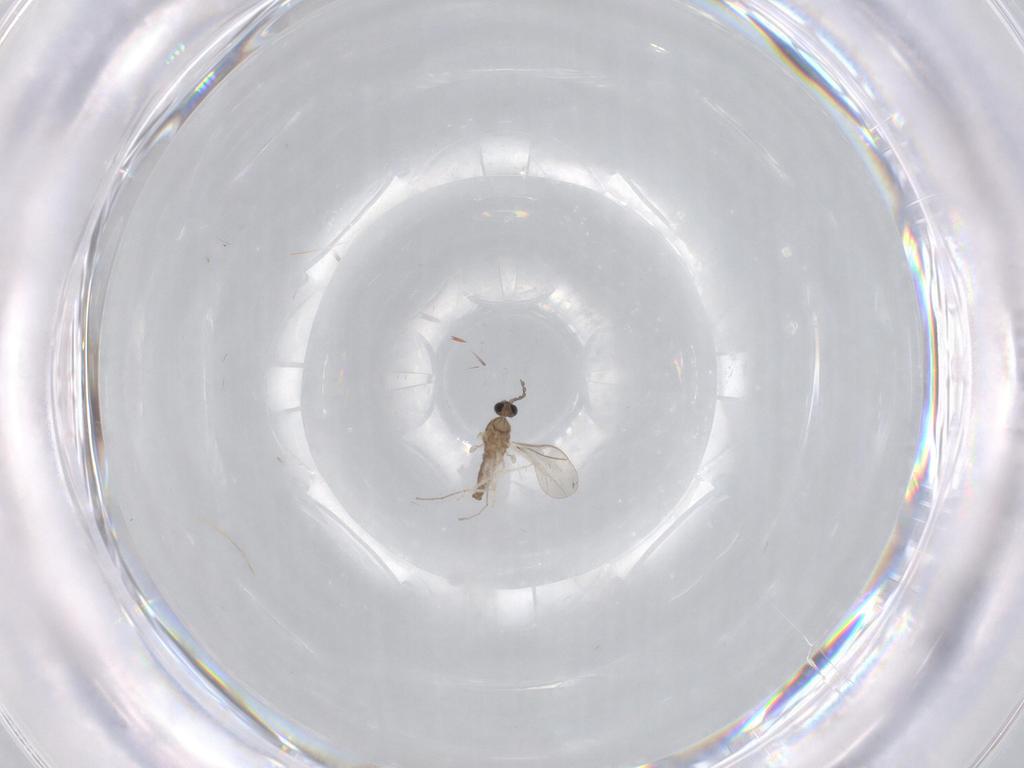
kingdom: Animalia
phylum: Arthropoda
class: Insecta
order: Diptera
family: Cecidomyiidae
